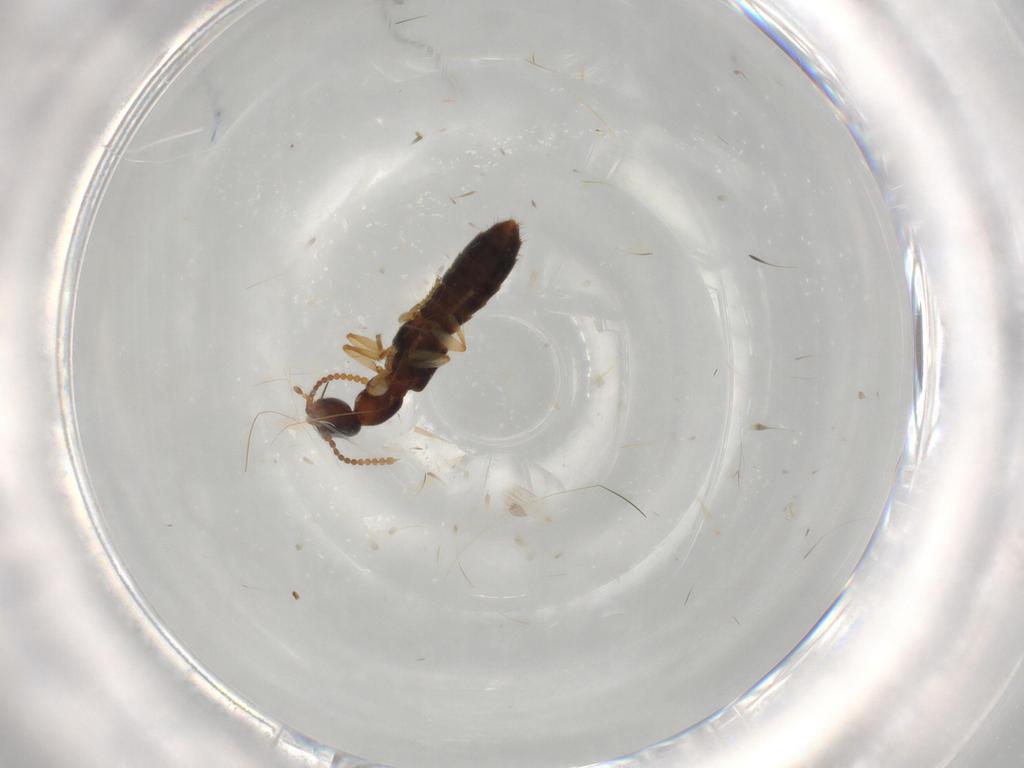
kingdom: Animalia
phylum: Arthropoda
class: Insecta
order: Coleoptera
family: Staphylinidae
